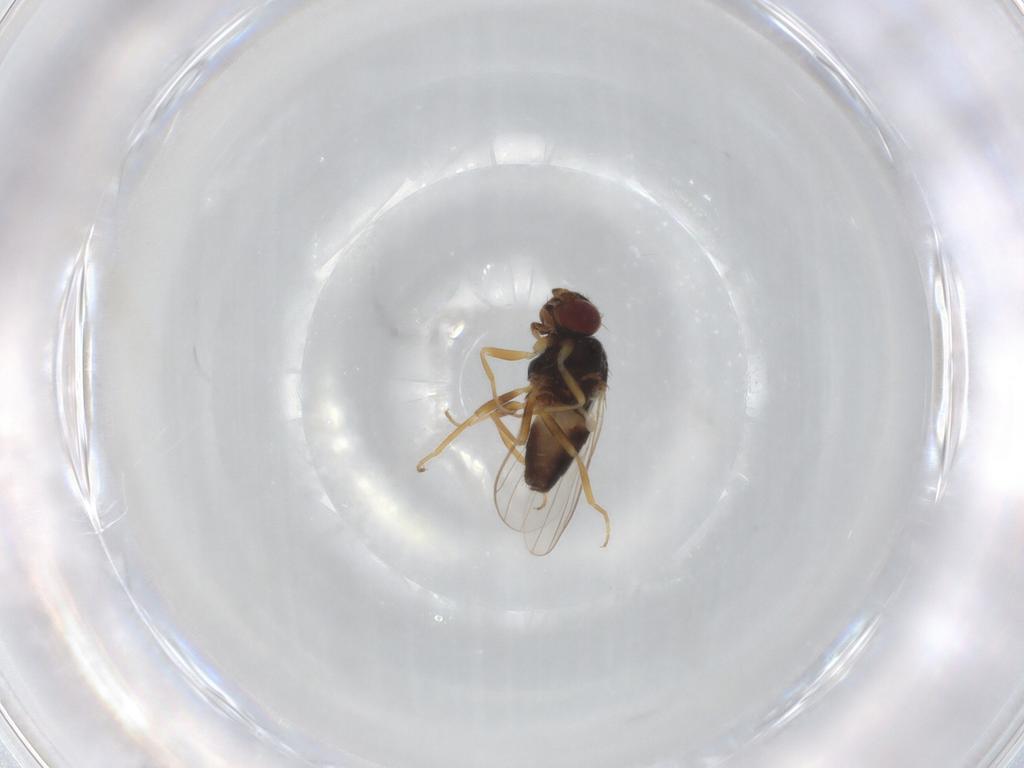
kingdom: Animalia
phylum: Arthropoda
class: Insecta
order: Diptera
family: Chloropidae
